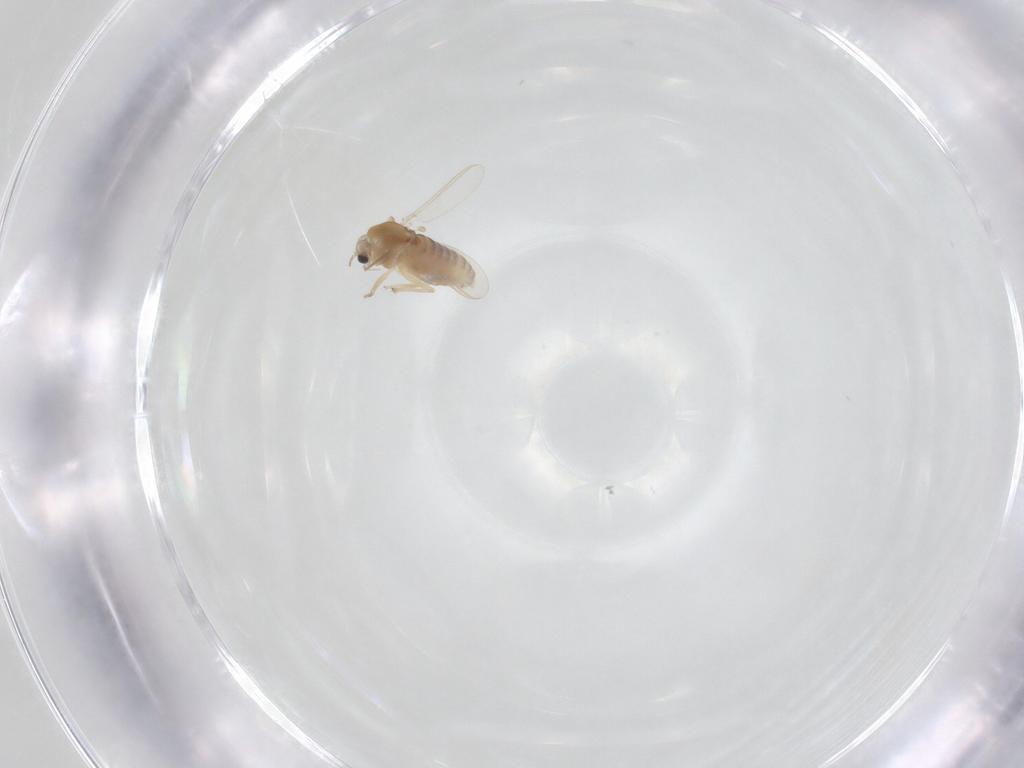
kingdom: Animalia
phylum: Arthropoda
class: Insecta
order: Diptera
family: Chironomidae
